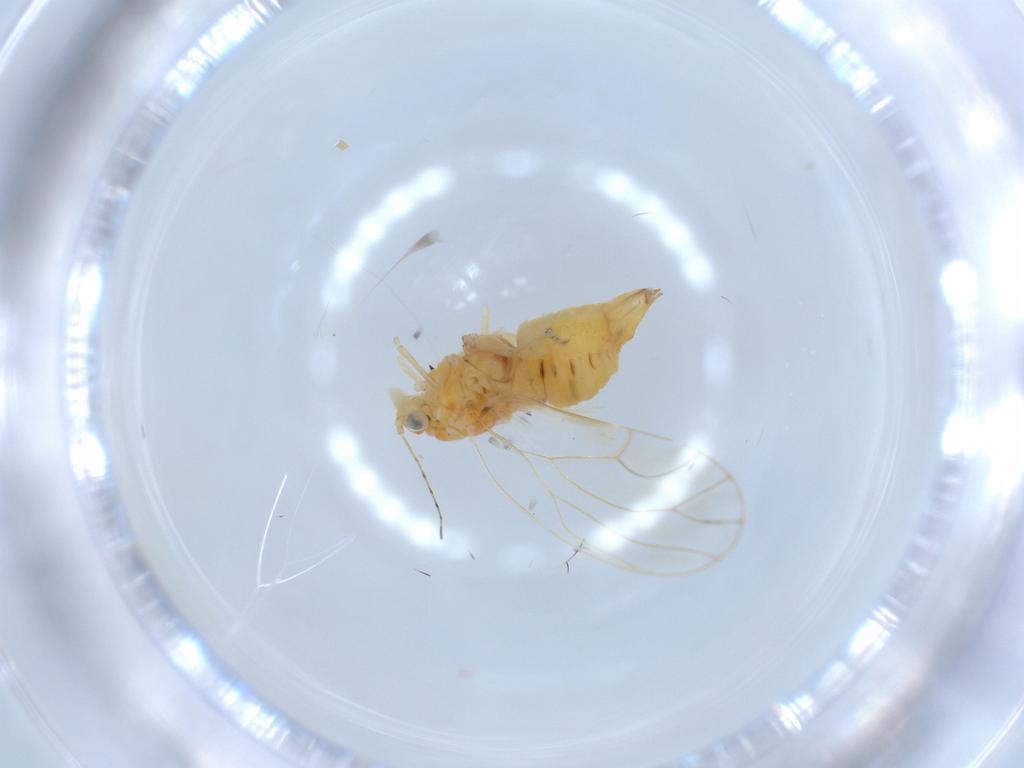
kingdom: Animalia
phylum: Arthropoda
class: Insecta
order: Hemiptera
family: Psyllidae
